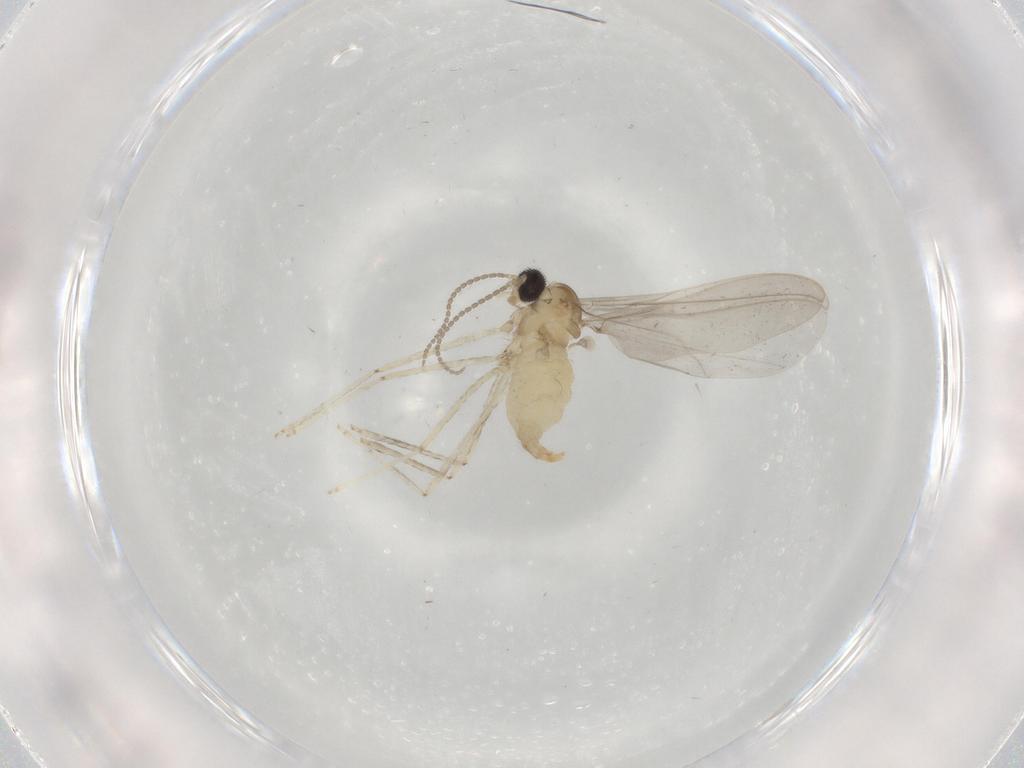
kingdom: Animalia
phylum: Arthropoda
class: Insecta
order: Diptera
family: Cecidomyiidae
